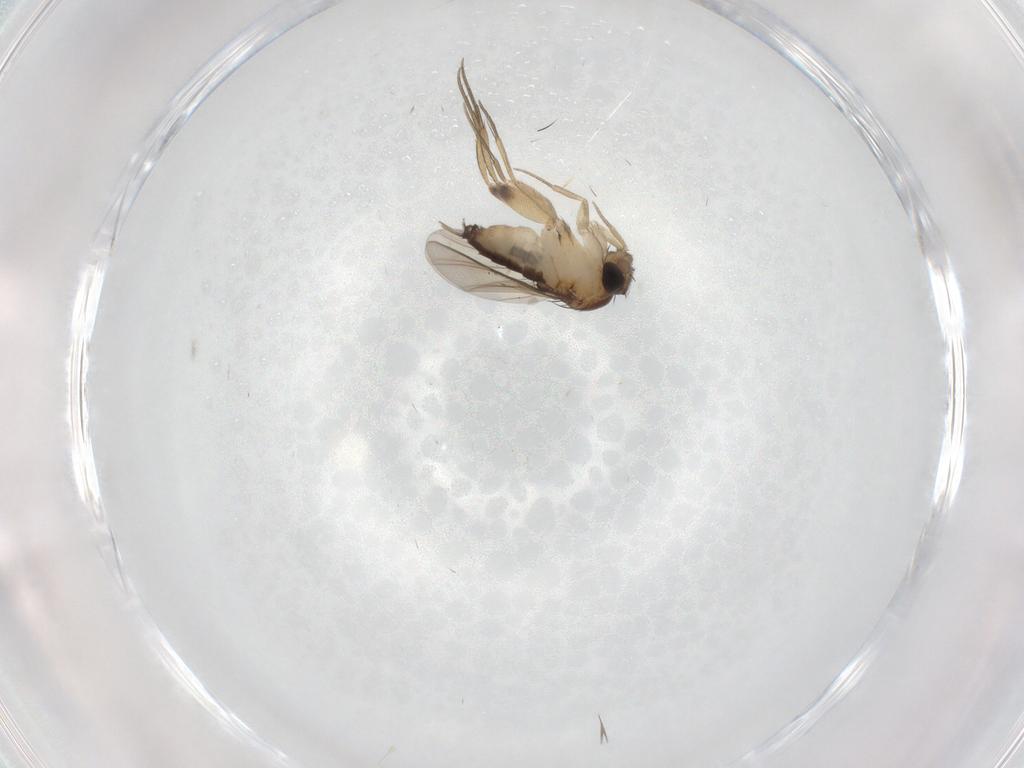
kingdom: Animalia
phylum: Arthropoda
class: Insecta
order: Diptera
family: Phoridae
